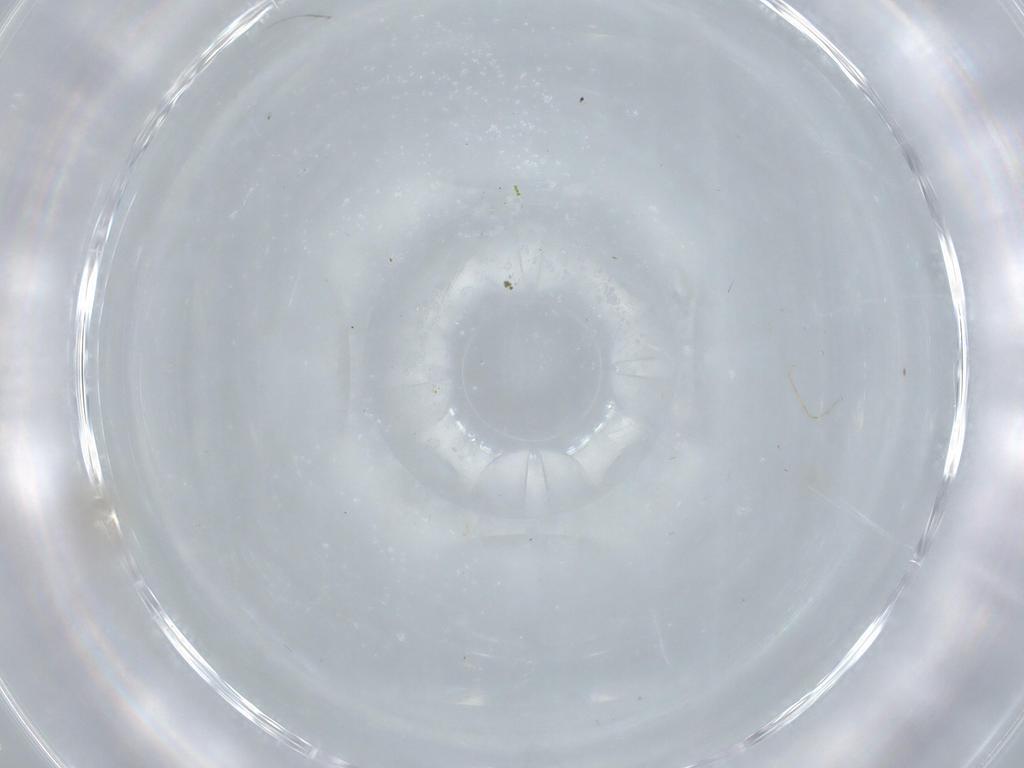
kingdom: Animalia
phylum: Arthropoda
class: Insecta
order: Diptera
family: Cecidomyiidae
